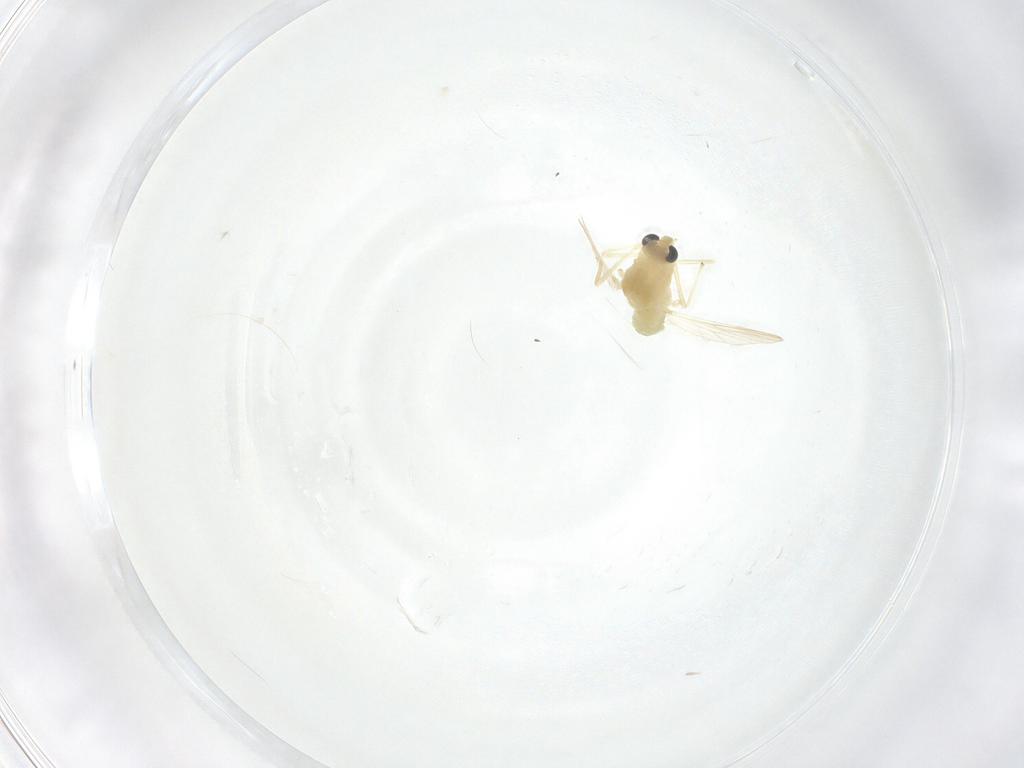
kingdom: Animalia
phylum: Arthropoda
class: Insecta
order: Diptera
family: Chironomidae
